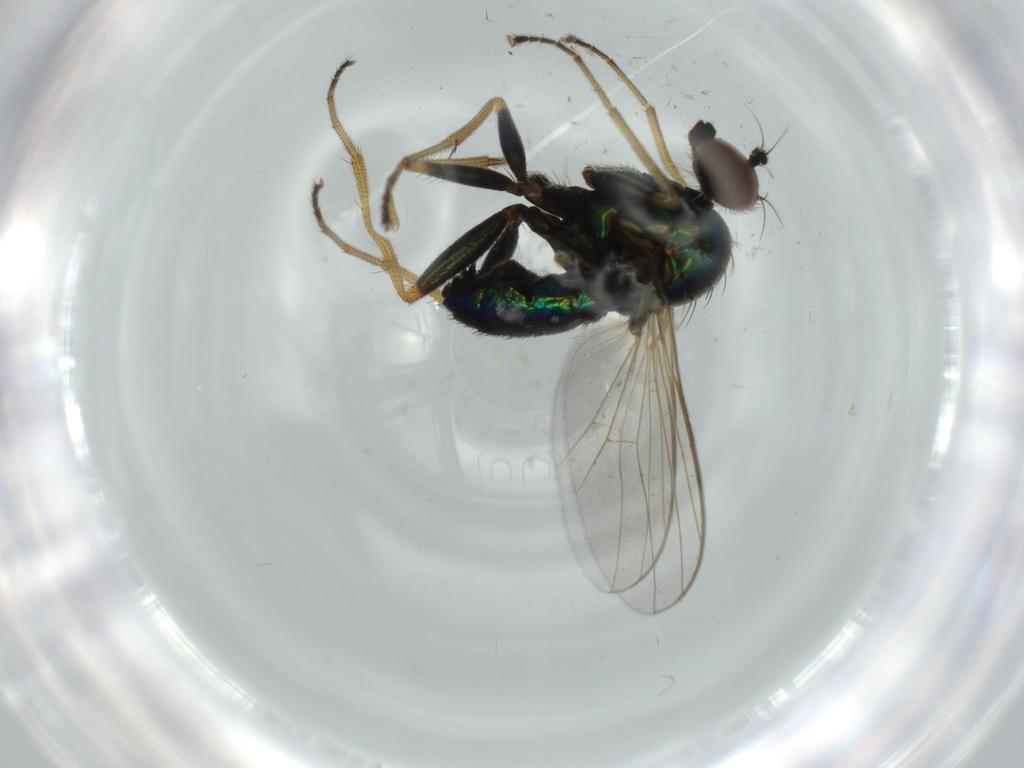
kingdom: Animalia
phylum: Arthropoda
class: Insecta
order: Diptera
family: Dolichopodidae
